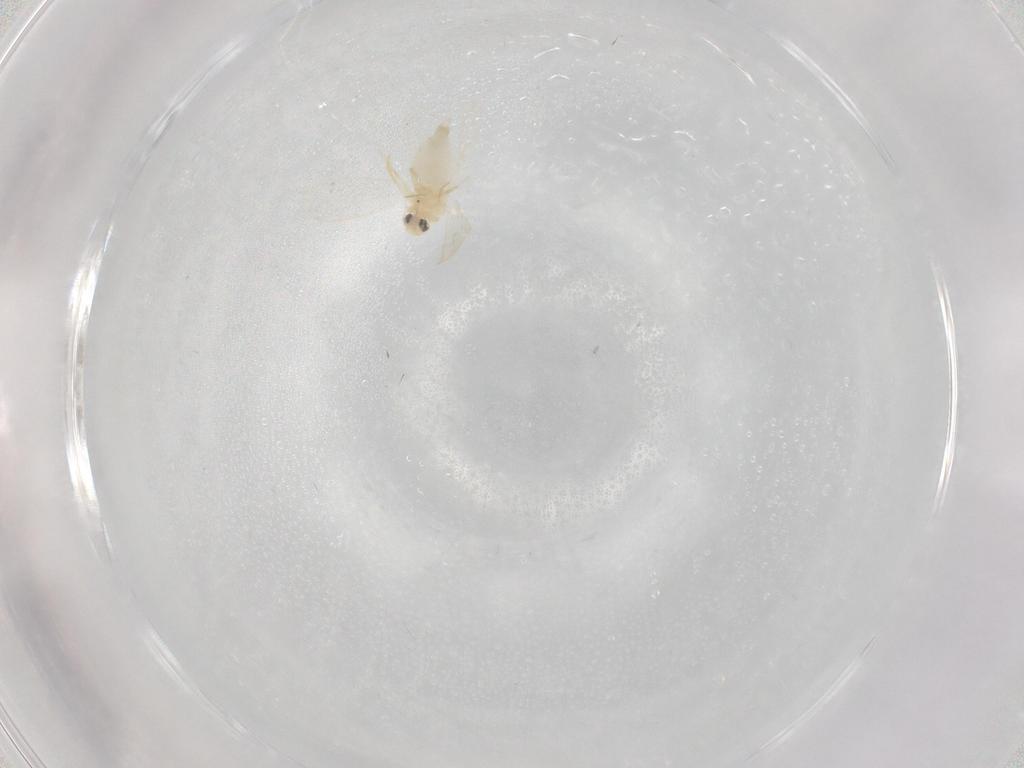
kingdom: Animalia
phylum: Arthropoda
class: Insecta
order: Hemiptera
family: Aleyrodidae
